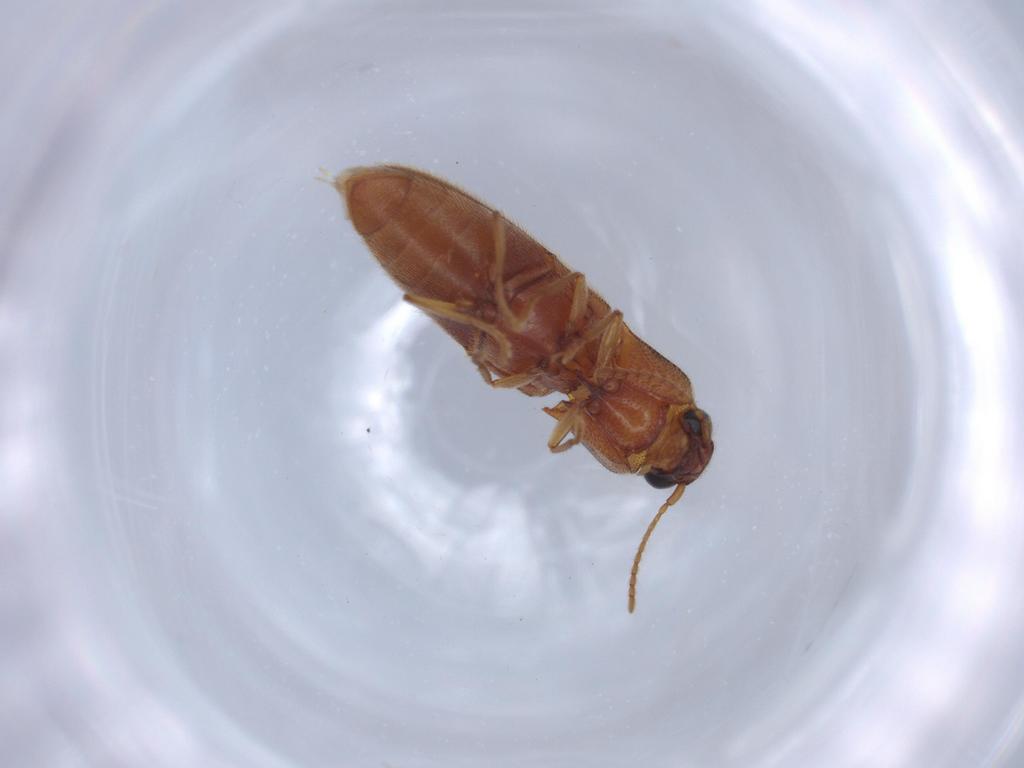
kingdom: Animalia
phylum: Arthropoda
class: Insecta
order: Coleoptera
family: Elateridae
